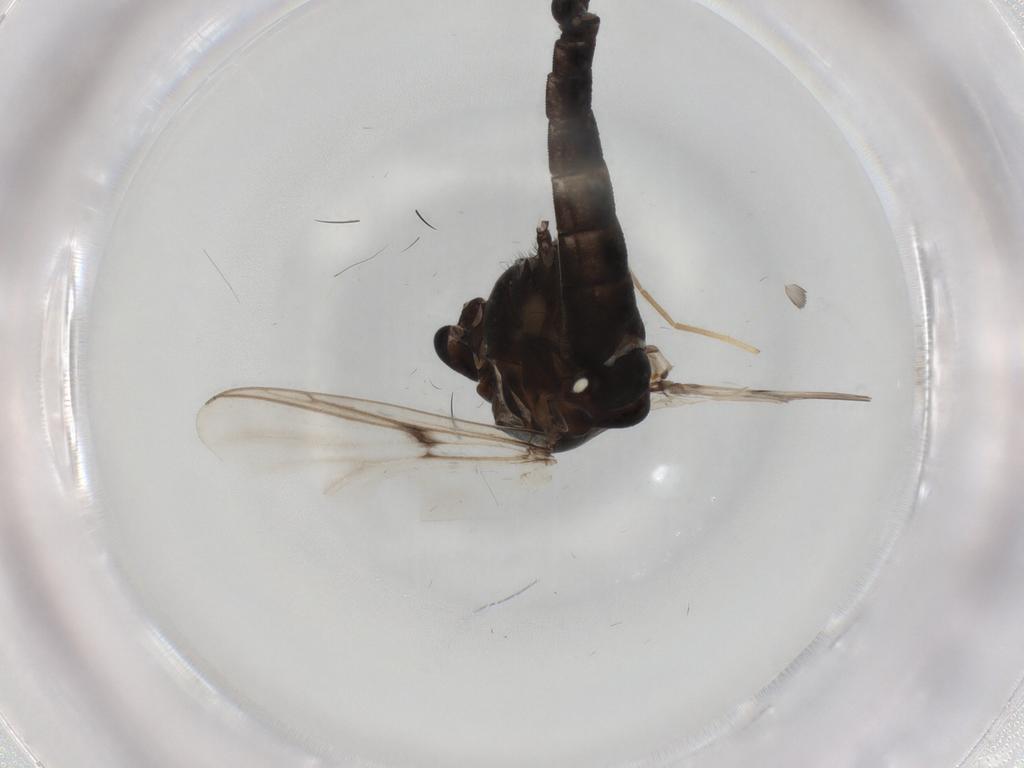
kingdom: Animalia
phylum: Arthropoda
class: Insecta
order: Diptera
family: Chironomidae
